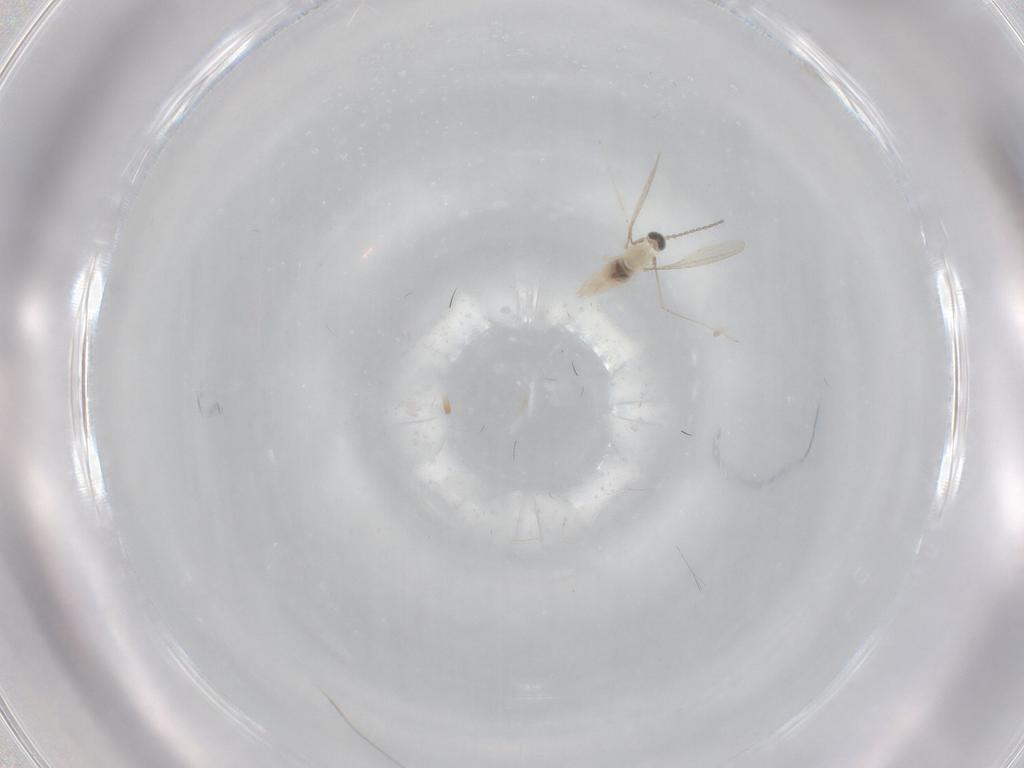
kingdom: Animalia
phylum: Arthropoda
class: Insecta
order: Diptera
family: Cecidomyiidae
